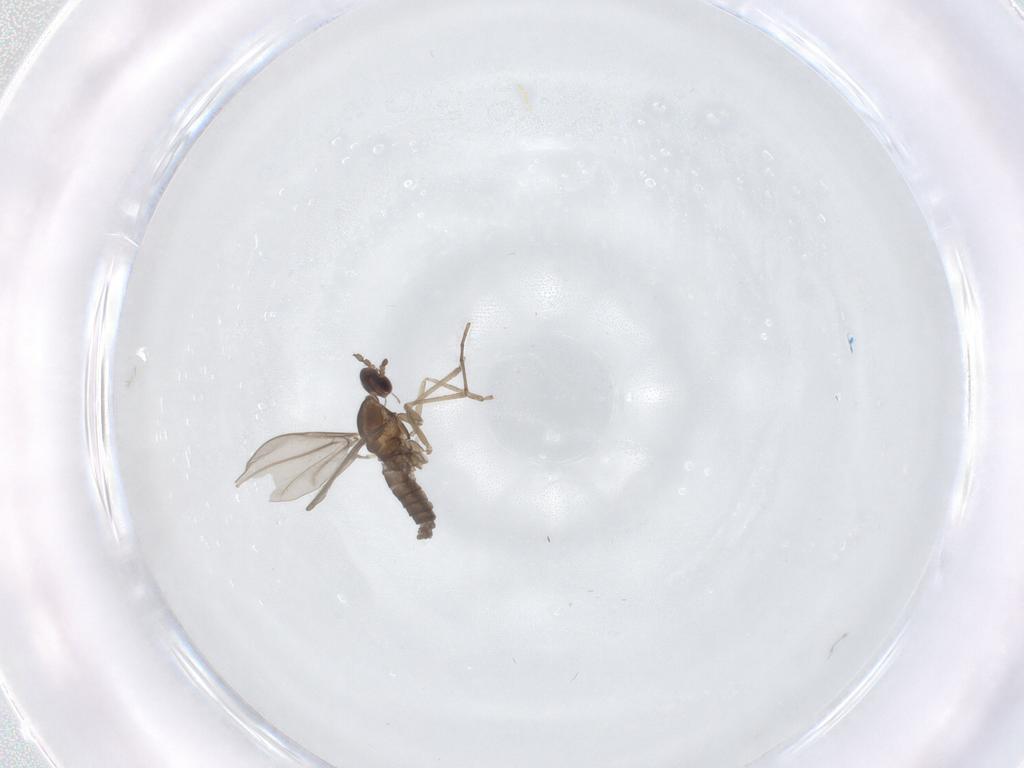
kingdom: Animalia
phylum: Arthropoda
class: Insecta
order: Diptera
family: Cecidomyiidae
